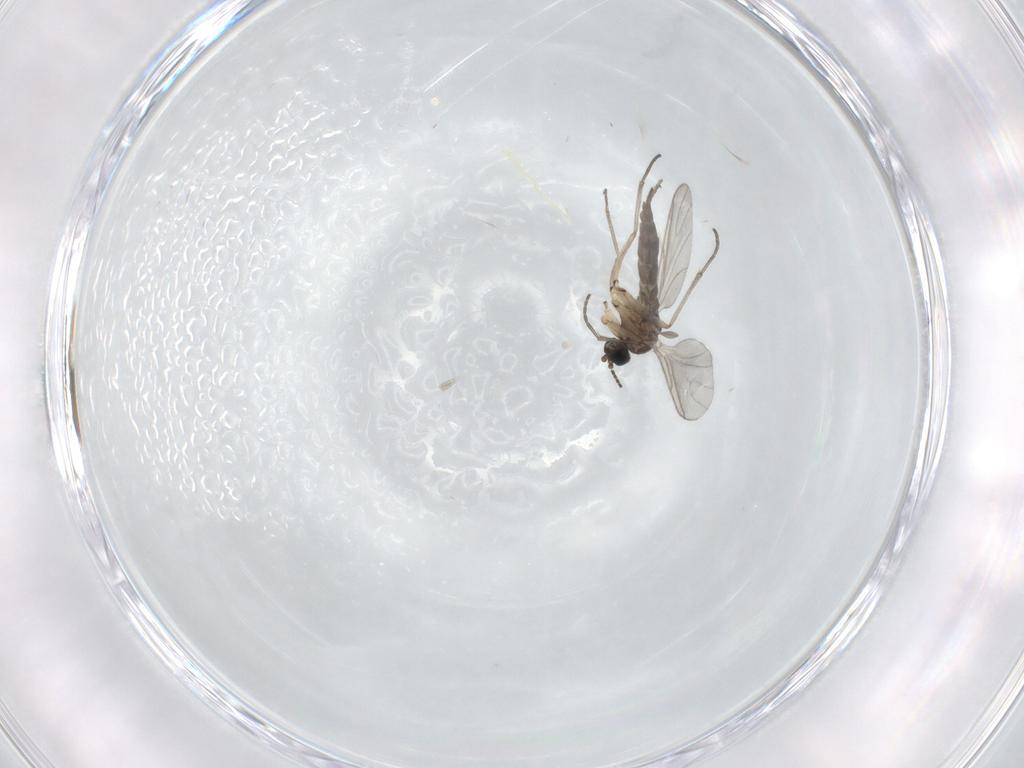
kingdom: Animalia
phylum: Arthropoda
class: Insecta
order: Diptera
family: Sciaridae
